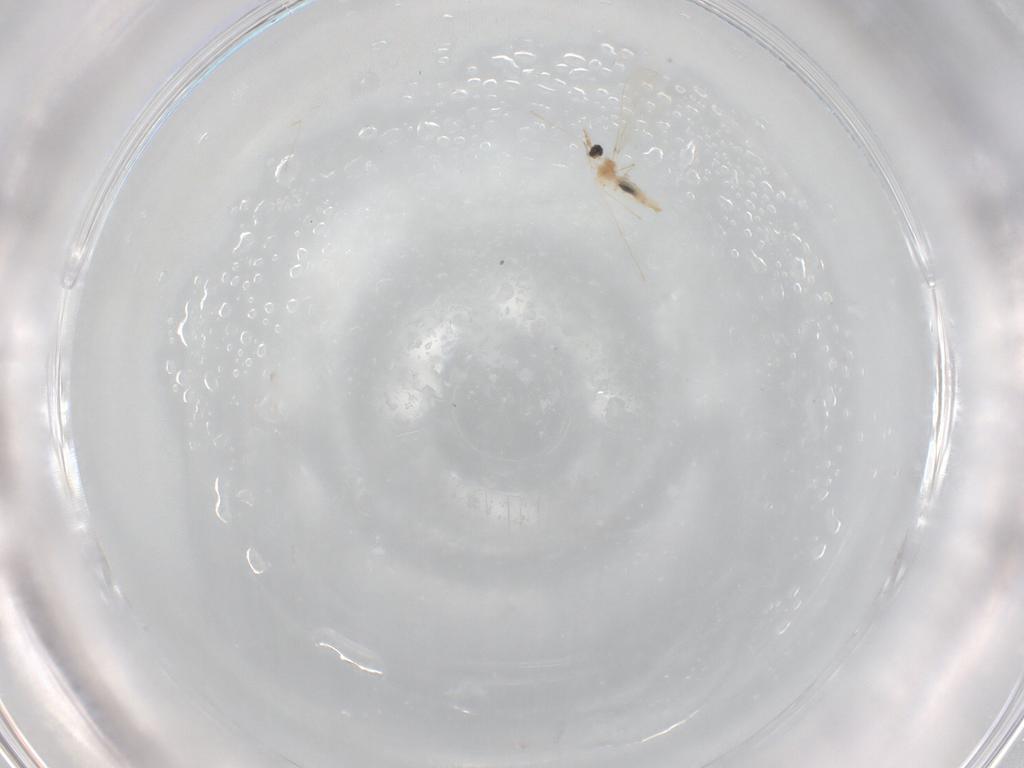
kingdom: Animalia
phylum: Arthropoda
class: Insecta
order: Diptera
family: Cecidomyiidae
